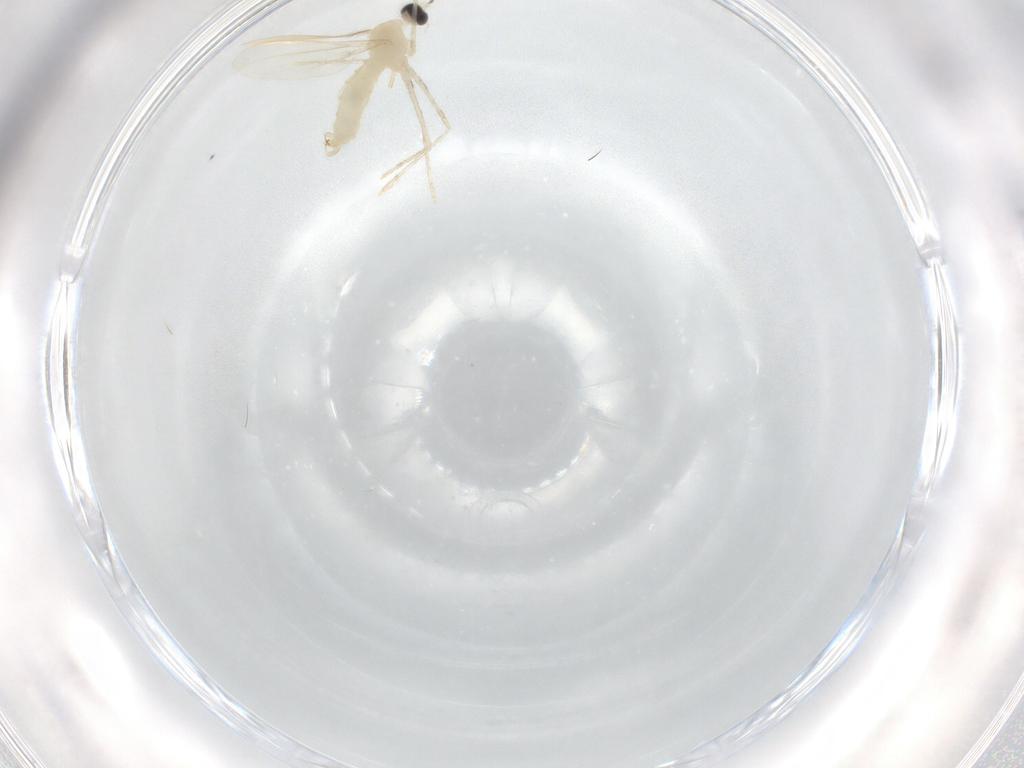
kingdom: Animalia
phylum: Arthropoda
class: Insecta
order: Diptera
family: Cecidomyiidae
